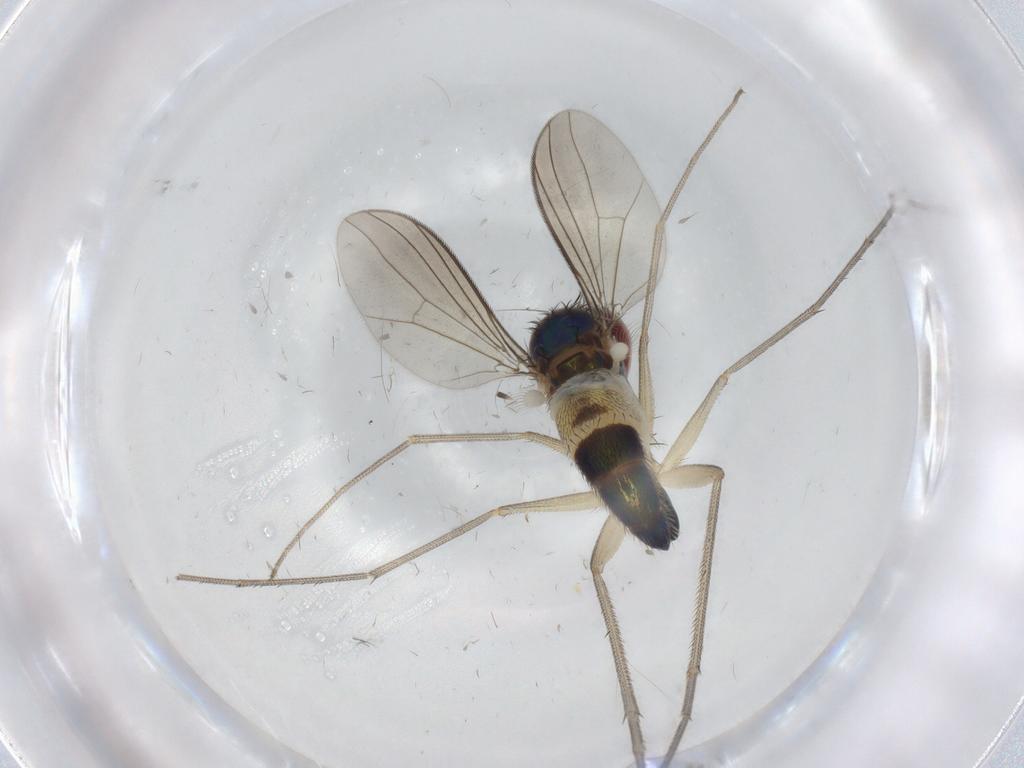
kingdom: Animalia
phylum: Arthropoda
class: Insecta
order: Diptera
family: Dolichopodidae
